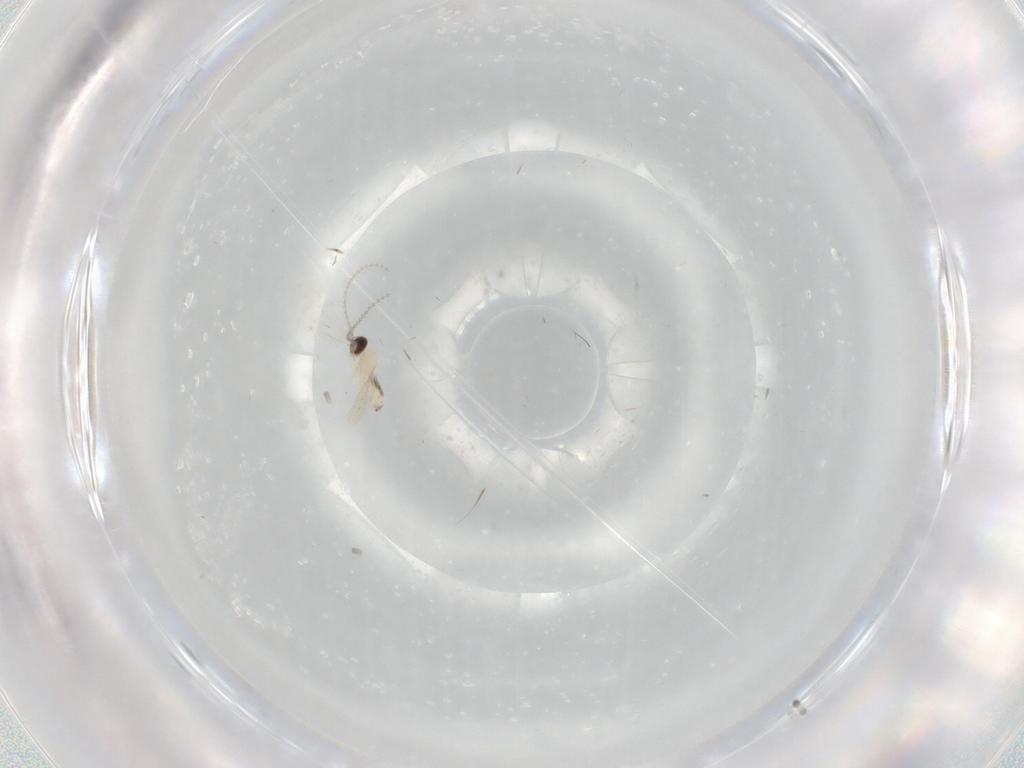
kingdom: Animalia
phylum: Arthropoda
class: Insecta
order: Diptera
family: Cecidomyiidae
